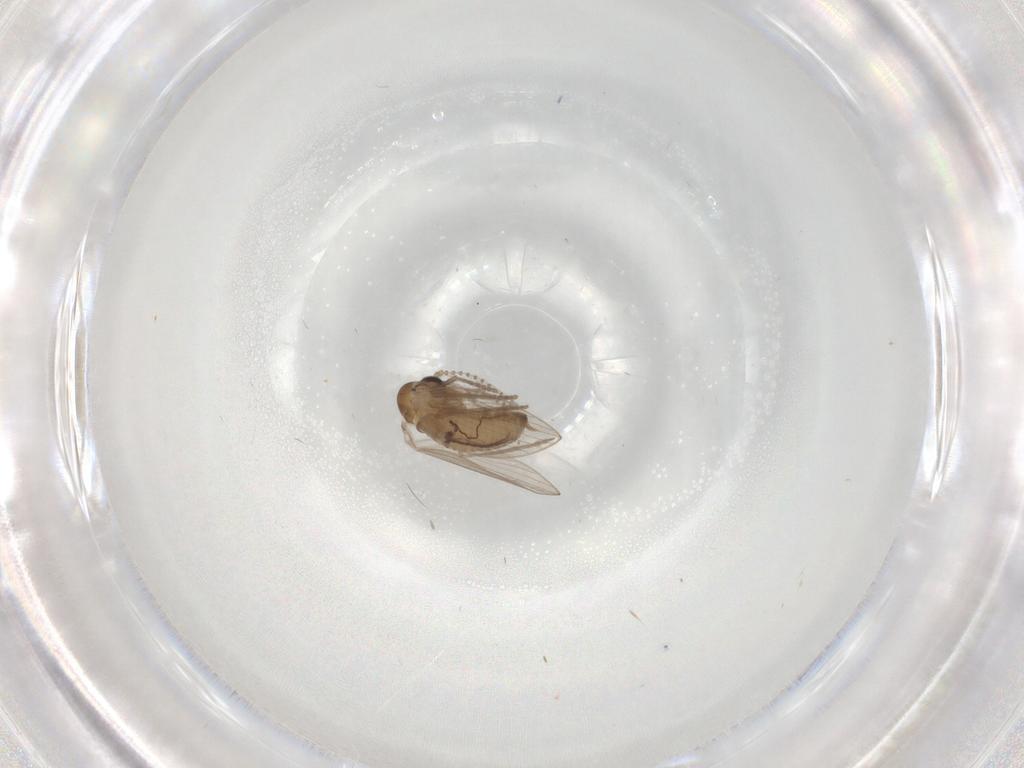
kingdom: Animalia
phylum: Arthropoda
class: Insecta
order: Diptera
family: Psychodidae
